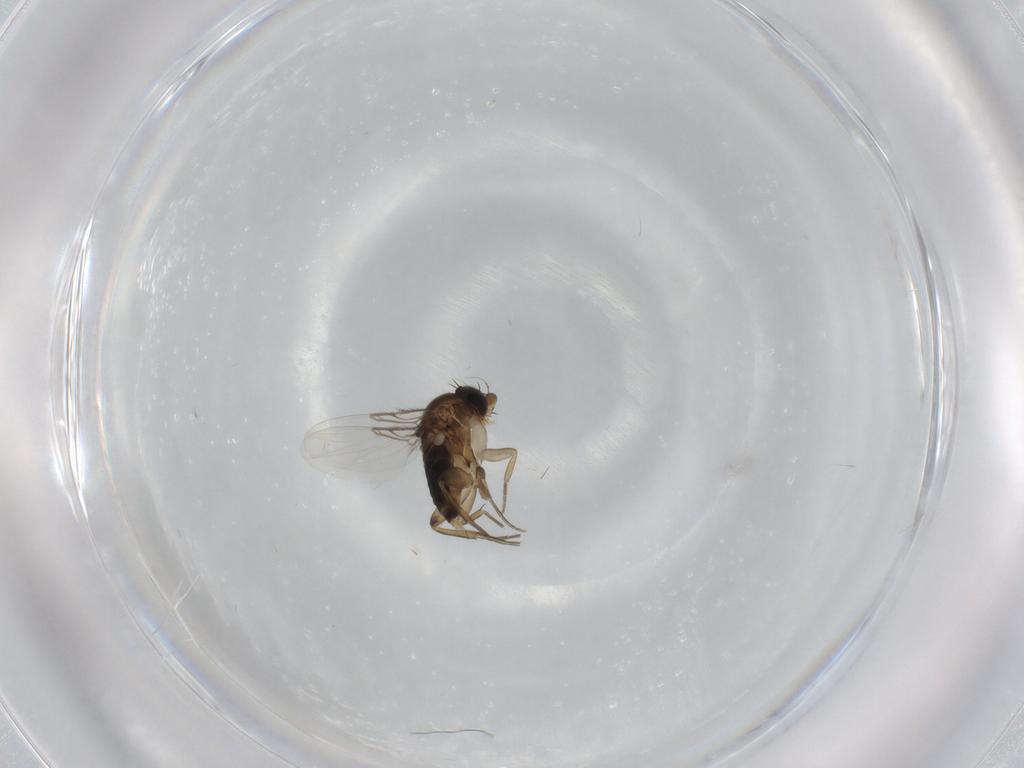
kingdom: Animalia
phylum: Arthropoda
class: Insecta
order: Diptera
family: Phoridae
